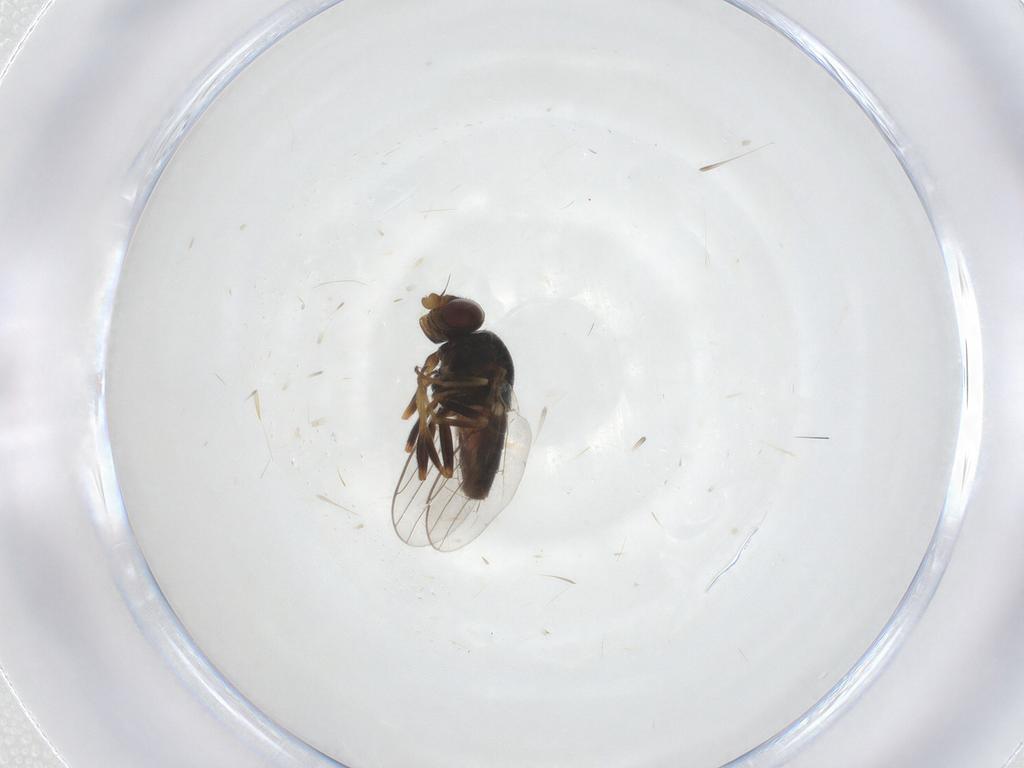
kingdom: Animalia
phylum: Arthropoda
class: Insecta
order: Diptera
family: Chloropidae
